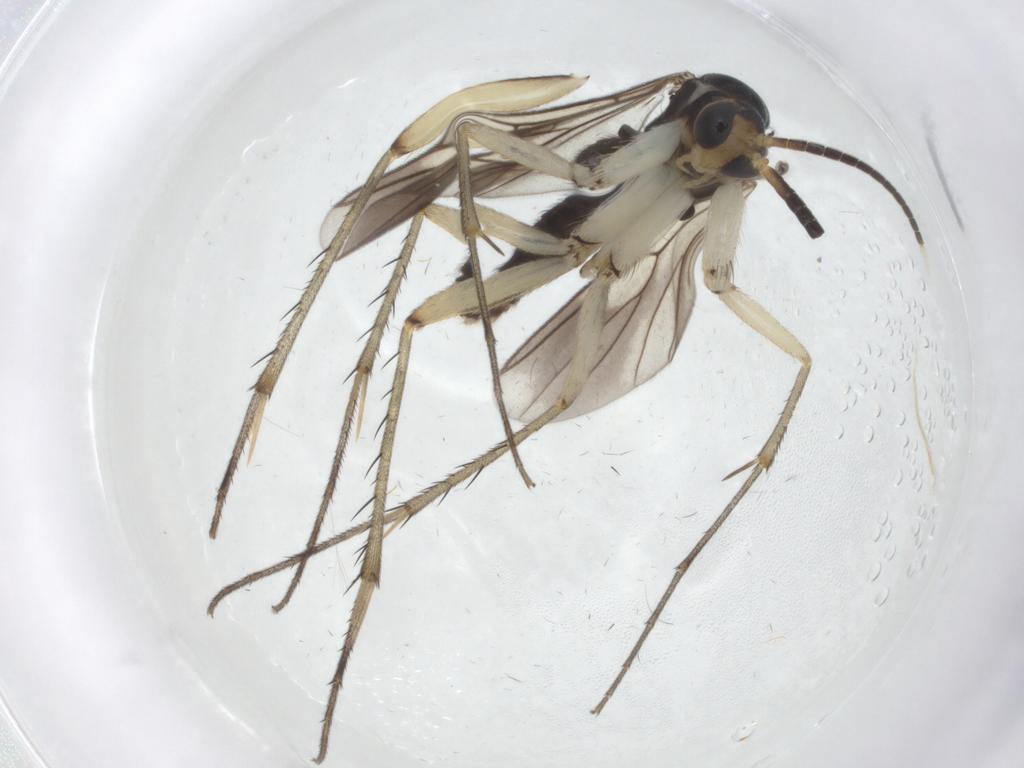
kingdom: Animalia
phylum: Arthropoda
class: Insecta
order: Diptera
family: Mycetophilidae
